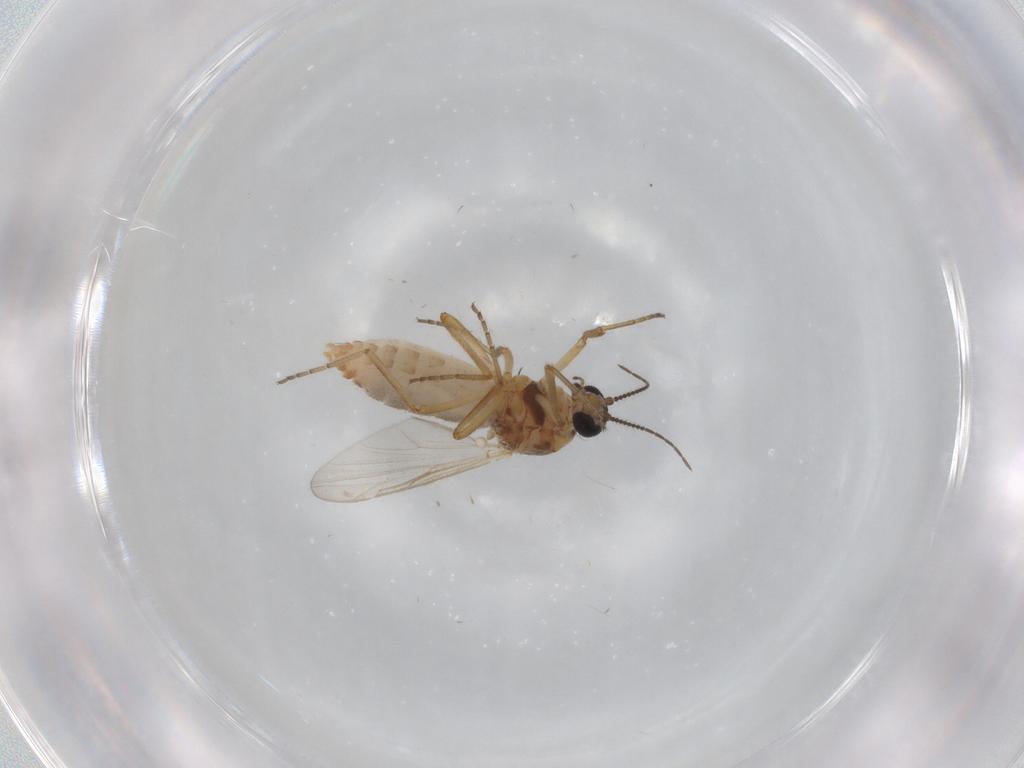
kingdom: Animalia
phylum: Arthropoda
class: Insecta
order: Diptera
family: Ceratopogonidae
